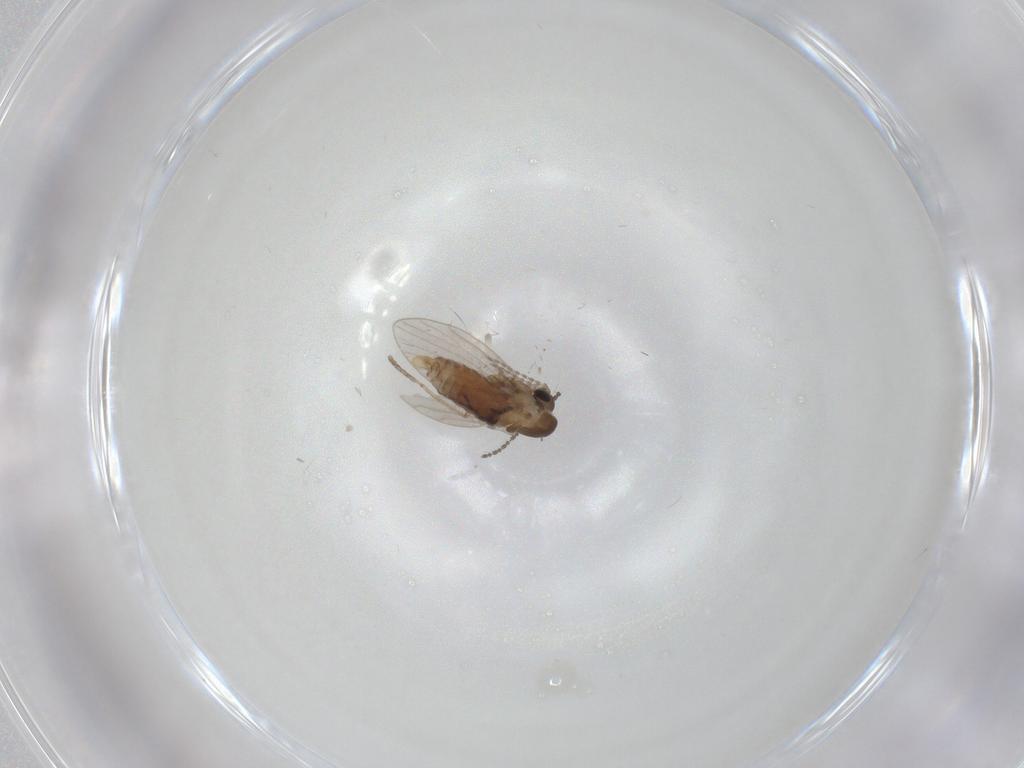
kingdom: Animalia
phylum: Arthropoda
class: Insecta
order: Diptera
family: Cecidomyiidae
